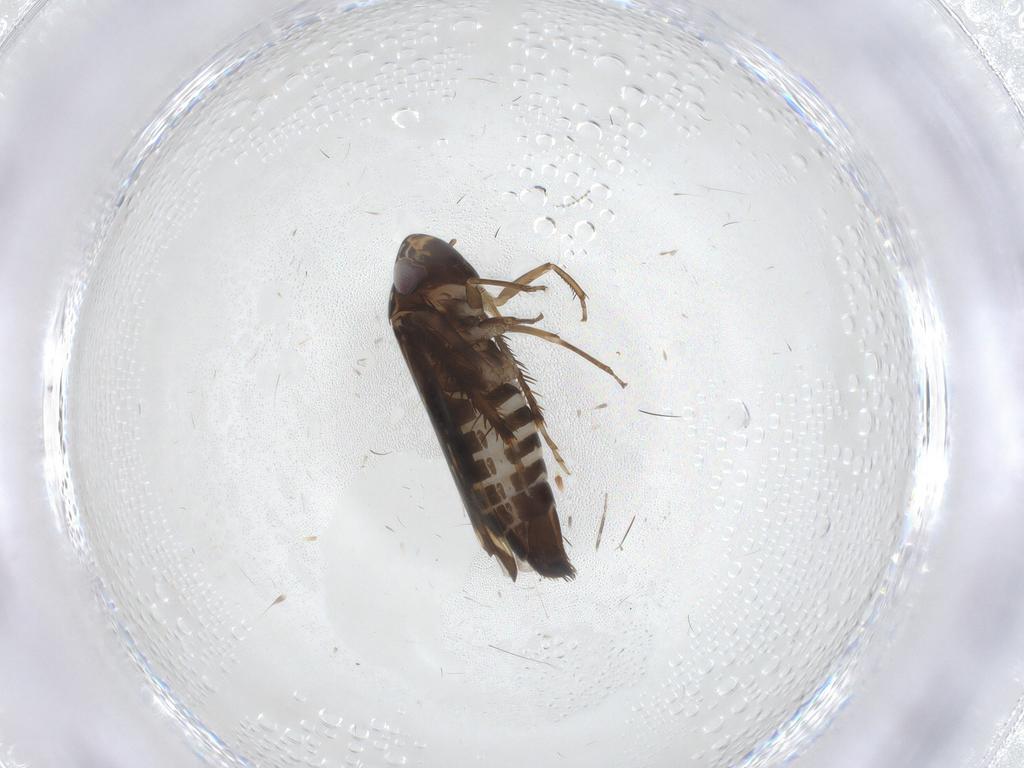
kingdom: Animalia
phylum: Arthropoda
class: Insecta
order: Hemiptera
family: Cicadellidae
